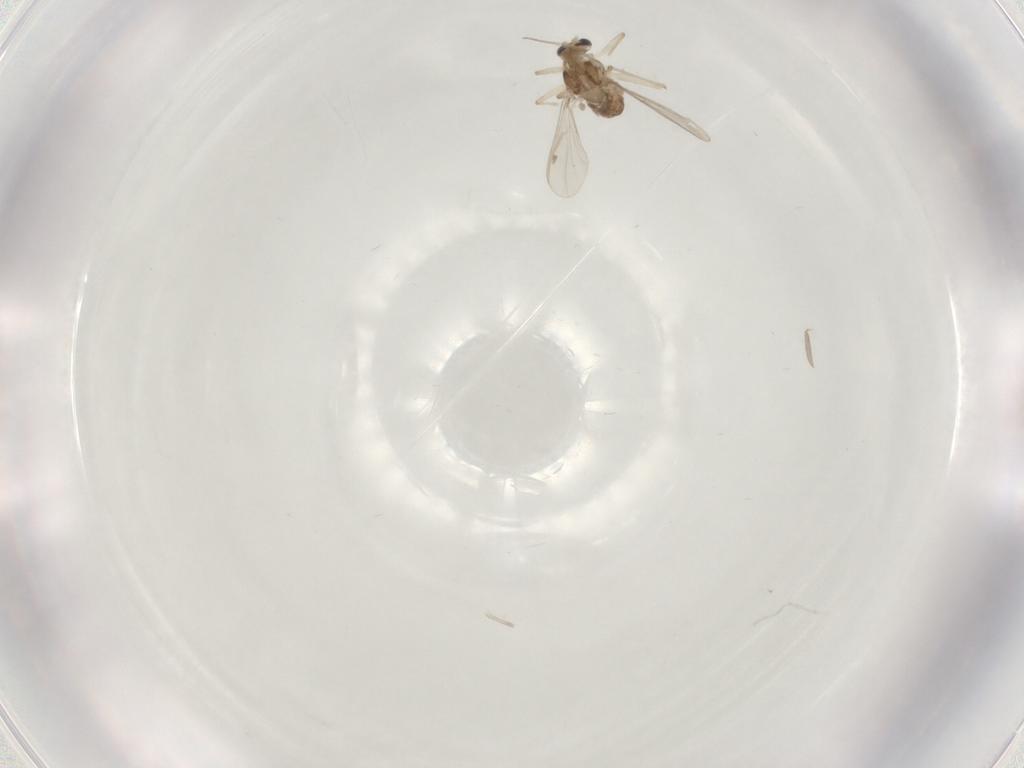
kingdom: Animalia
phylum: Arthropoda
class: Insecta
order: Diptera
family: Chironomidae
